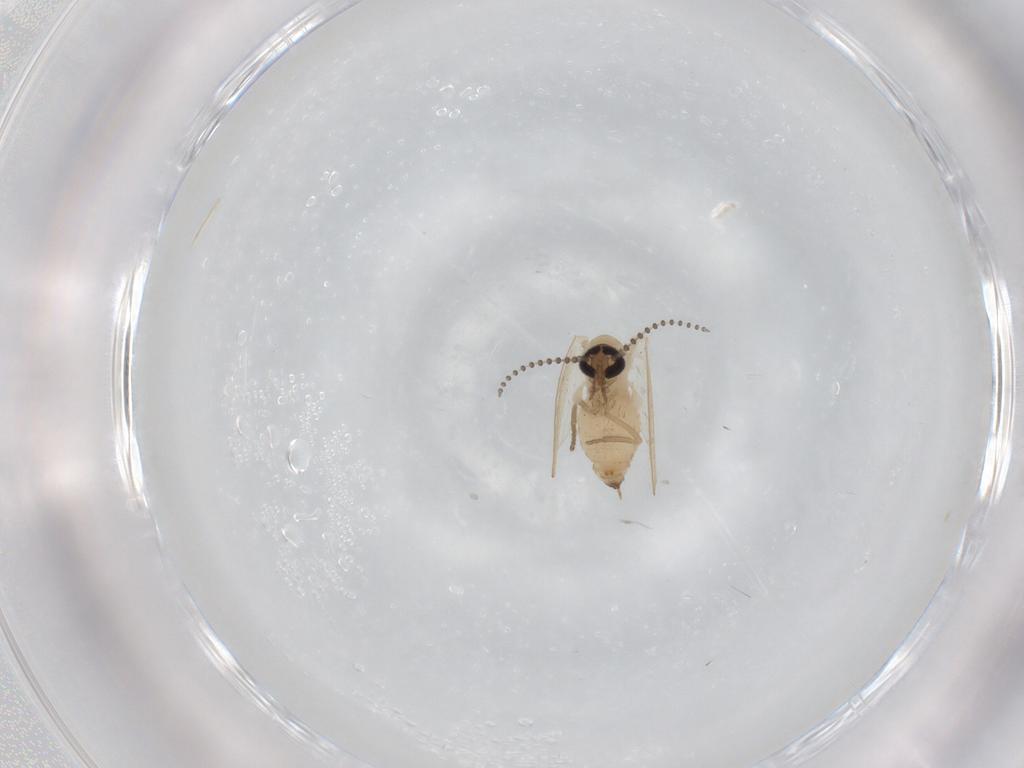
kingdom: Animalia
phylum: Arthropoda
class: Insecta
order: Diptera
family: Psychodidae
